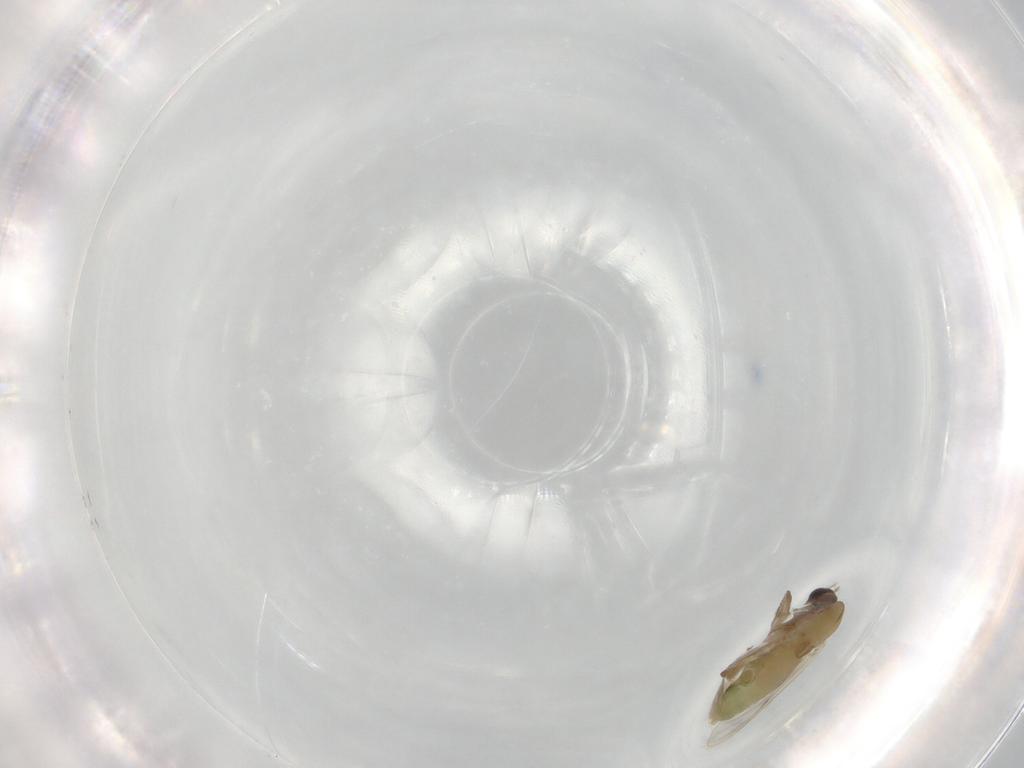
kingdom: Animalia
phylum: Arthropoda
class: Insecta
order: Diptera
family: Chironomidae
